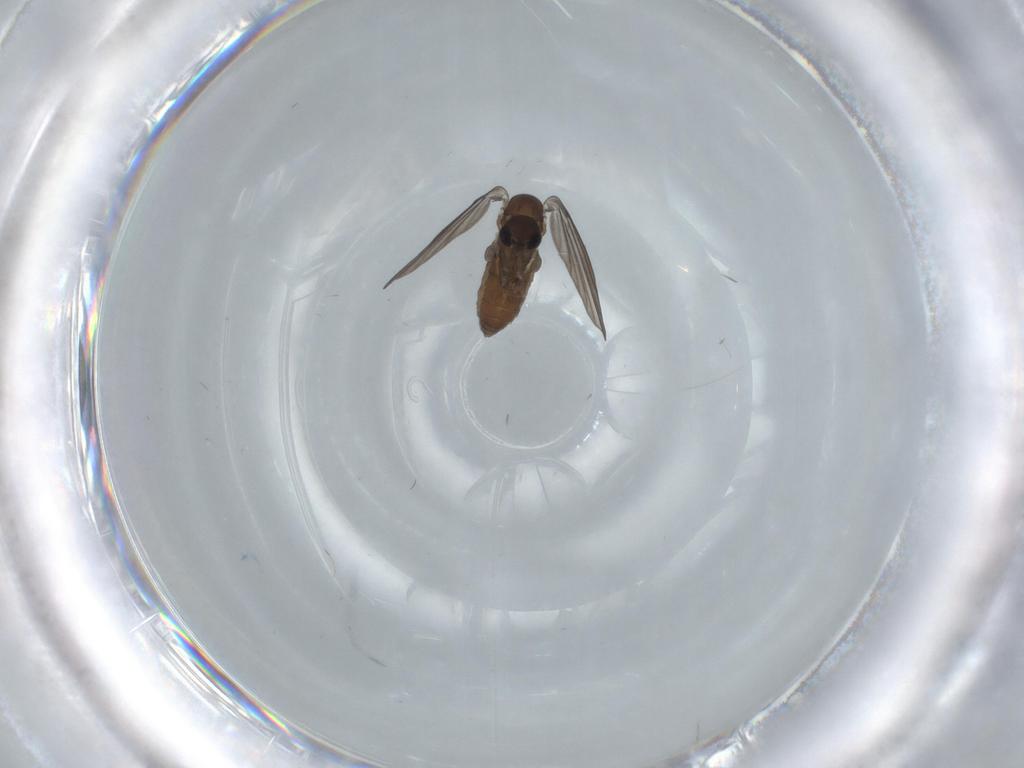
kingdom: Animalia
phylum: Arthropoda
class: Insecta
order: Diptera
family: Psychodidae
